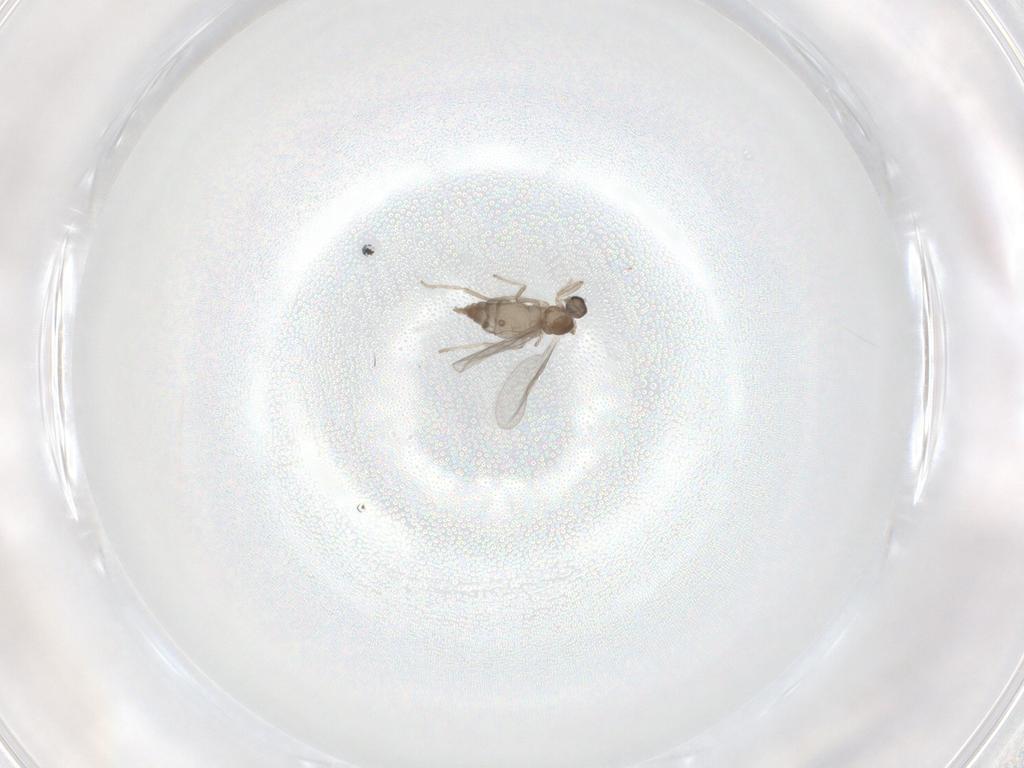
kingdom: Animalia
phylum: Arthropoda
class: Insecta
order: Diptera
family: Cecidomyiidae
